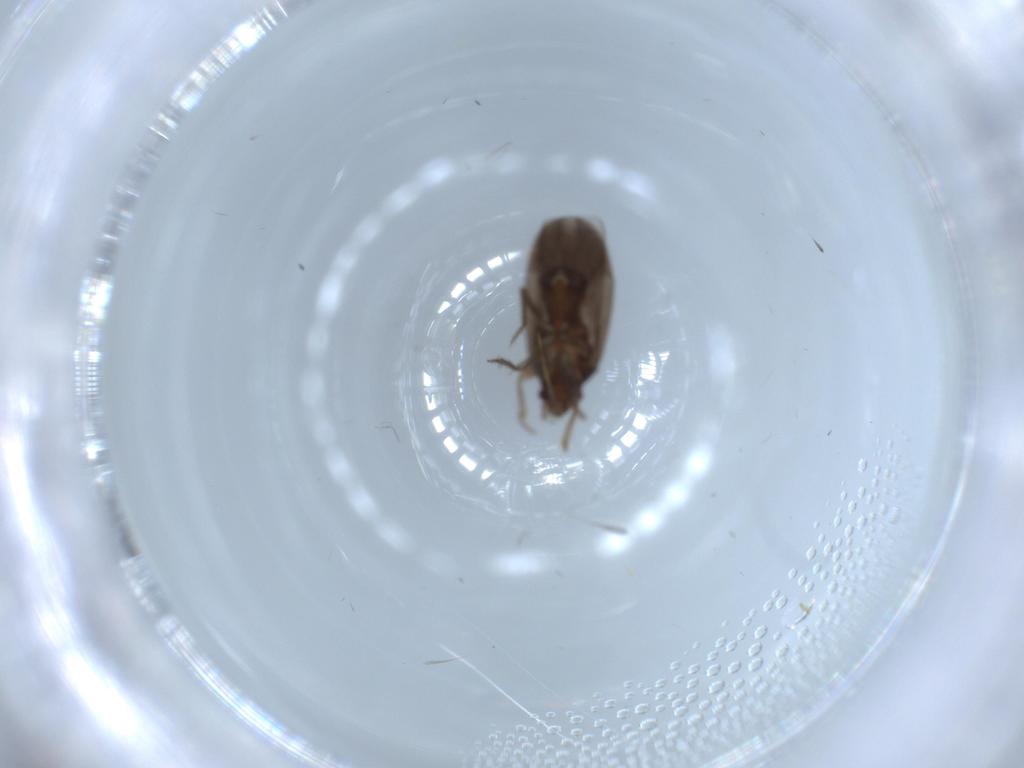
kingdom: Animalia
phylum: Arthropoda
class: Insecta
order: Hemiptera
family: Ceratocombidae
